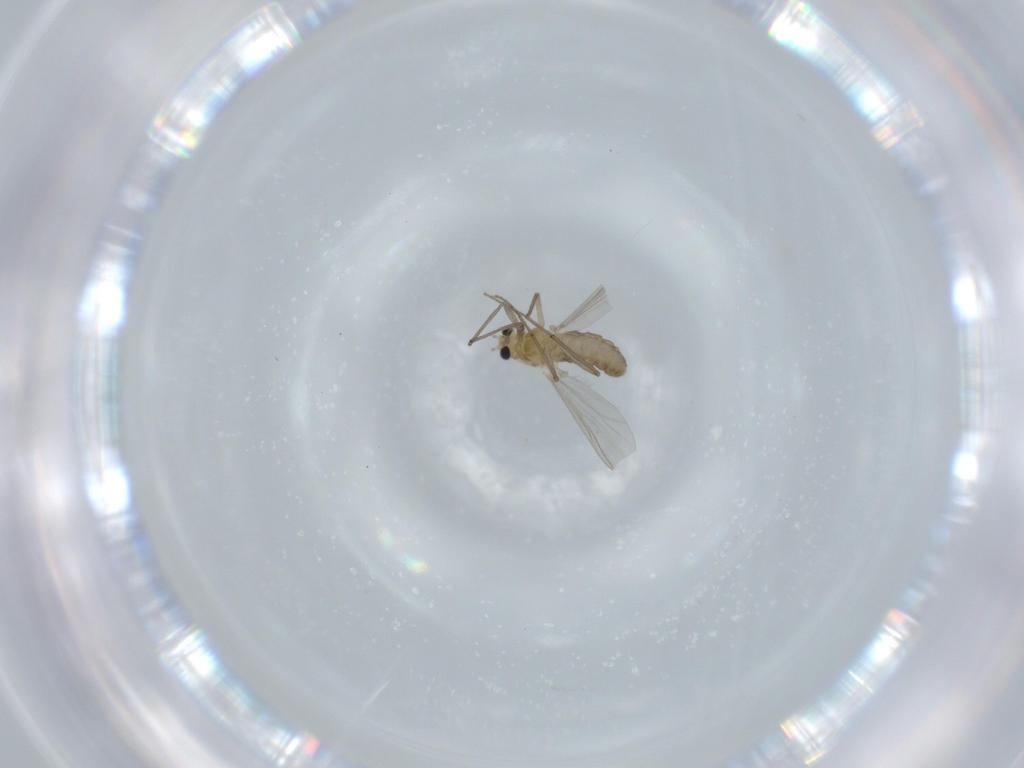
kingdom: Animalia
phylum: Arthropoda
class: Insecta
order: Diptera
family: Chironomidae
